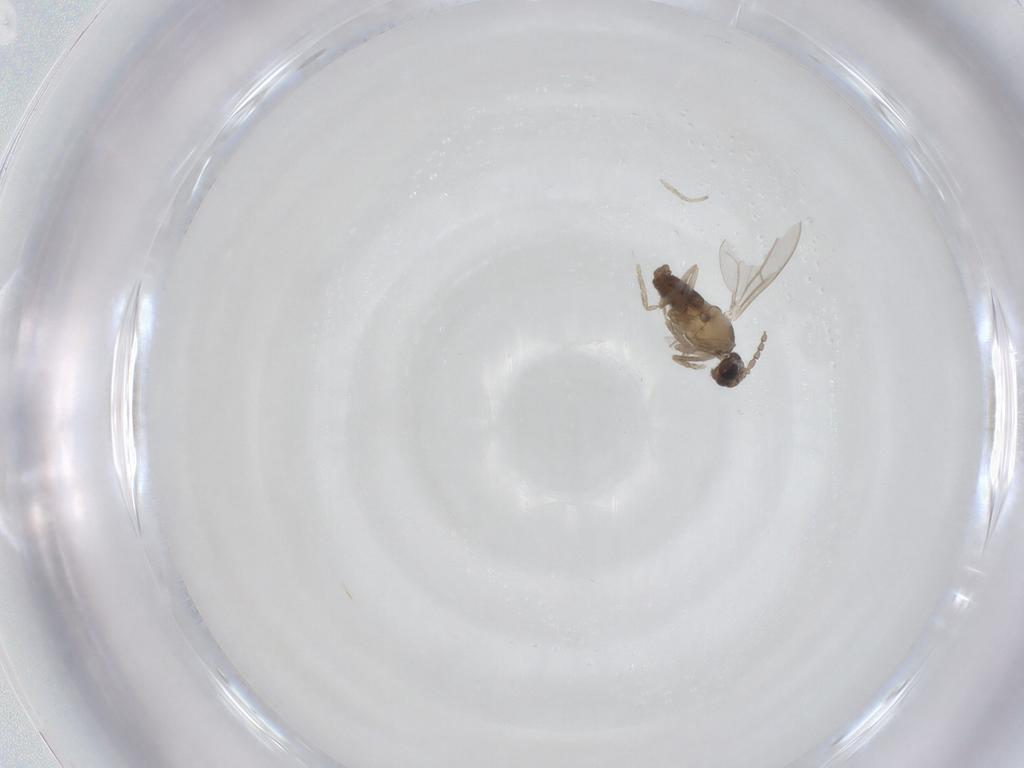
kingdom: Animalia
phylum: Arthropoda
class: Insecta
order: Diptera
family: Cecidomyiidae
